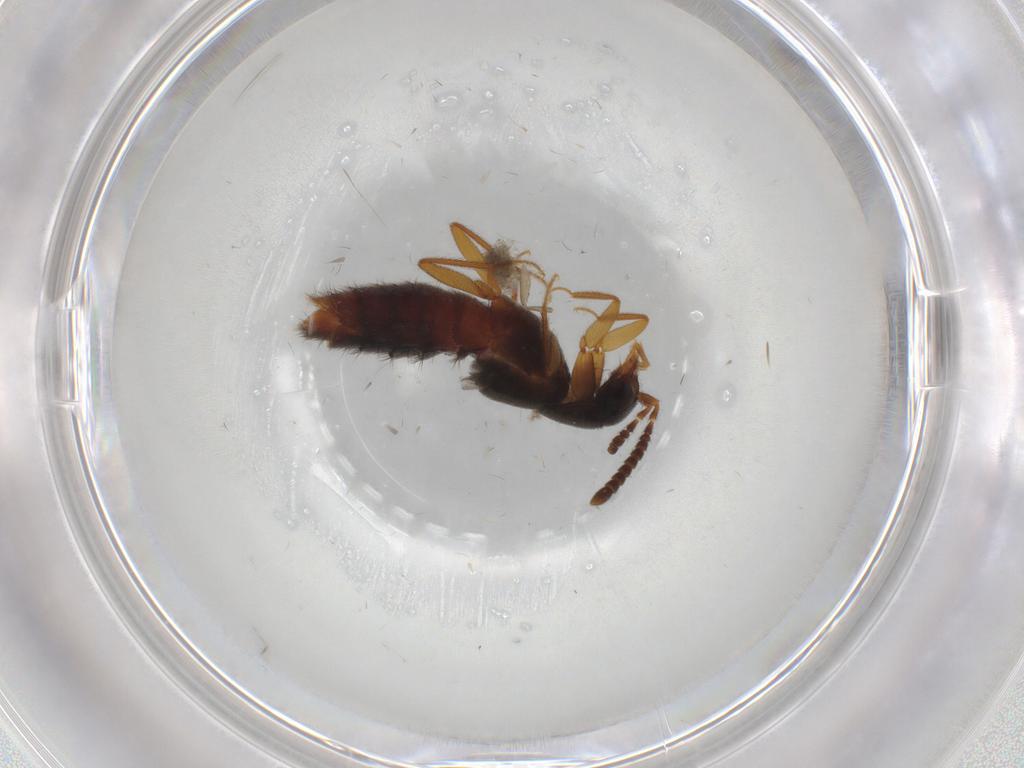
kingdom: Animalia
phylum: Arthropoda
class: Insecta
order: Coleoptera
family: Staphylinidae
